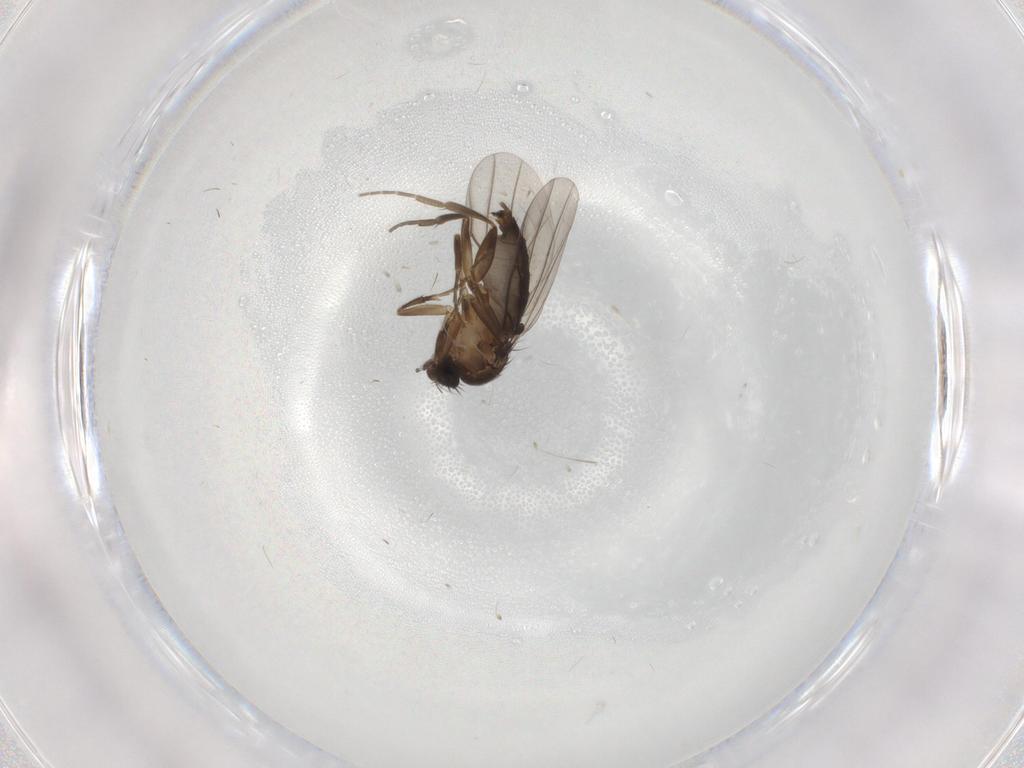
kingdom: Animalia
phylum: Arthropoda
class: Insecta
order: Diptera
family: Phoridae
